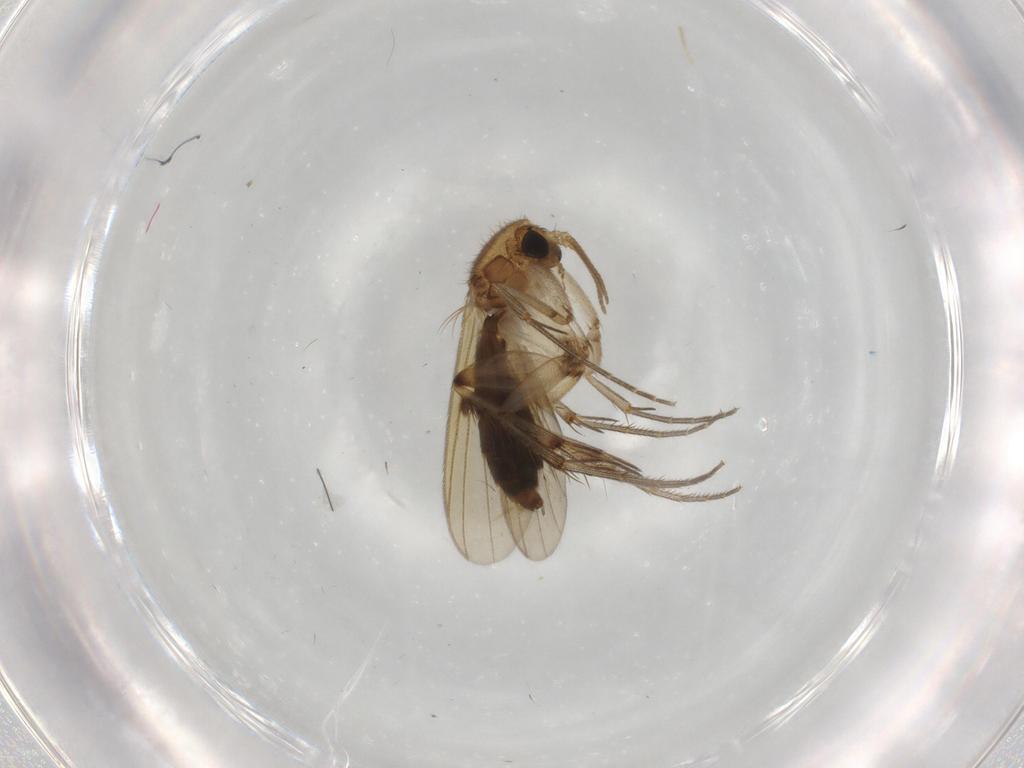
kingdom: Animalia
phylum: Arthropoda
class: Insecta
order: Diptera
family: Mycetophilidae
